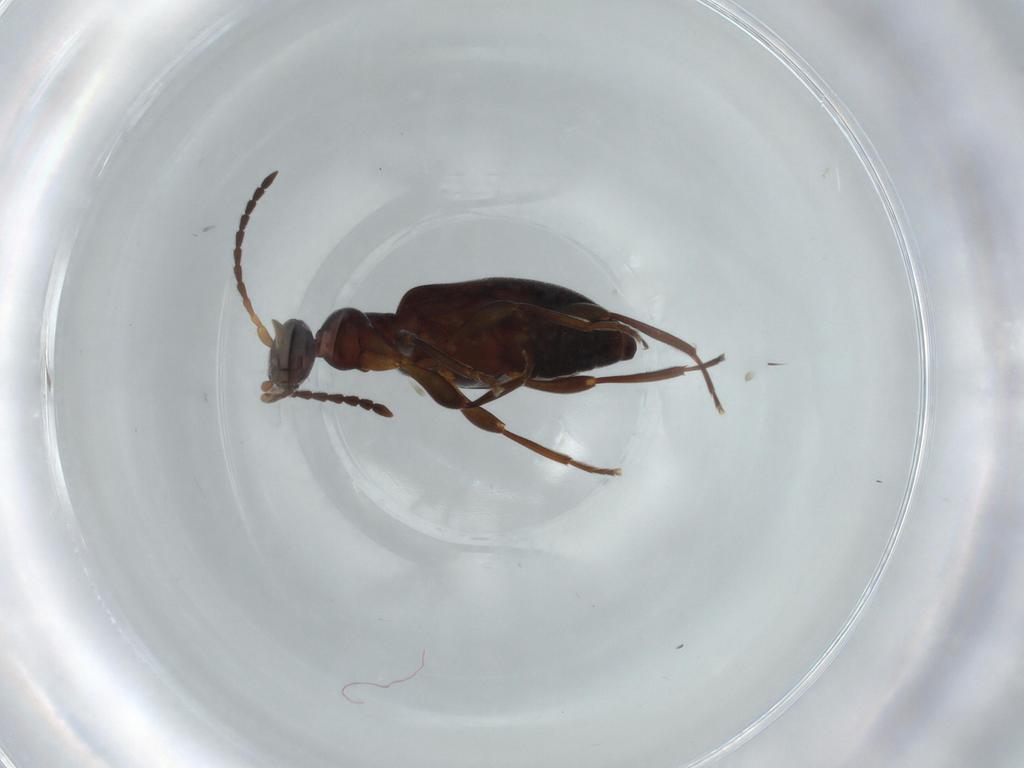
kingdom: Animalia
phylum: Arthropoda
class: Insecta
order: Coleoptera
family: Anthicidae
